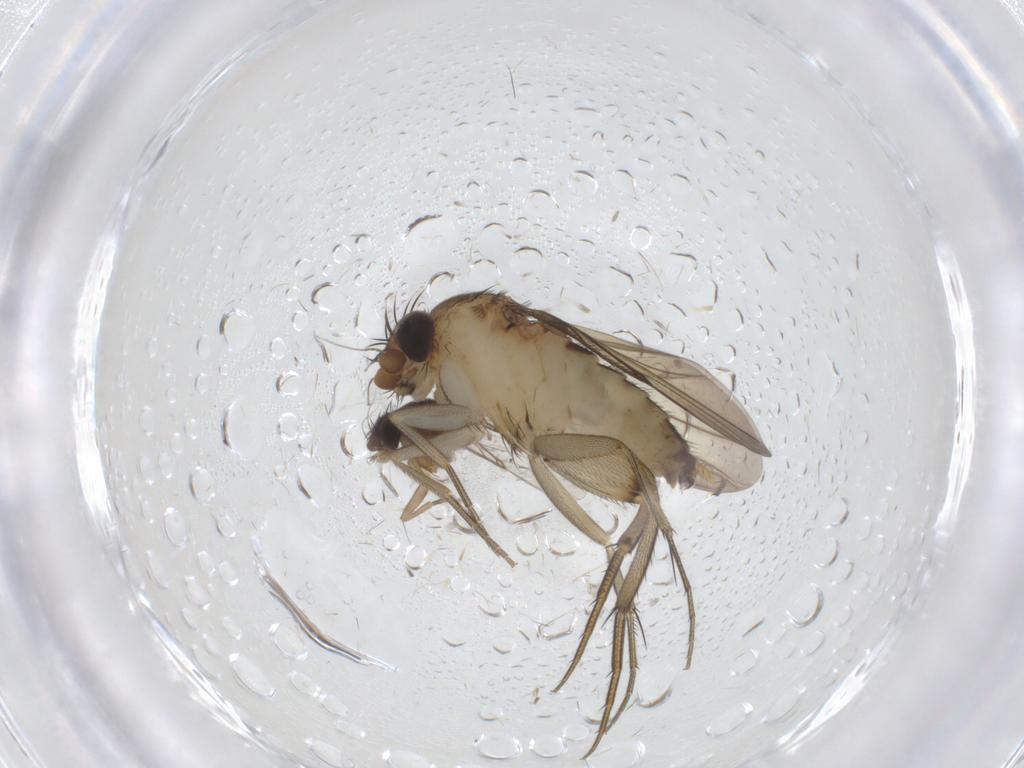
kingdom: Animalia
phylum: Arthropoda
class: Insecta
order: Diptera
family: Phoridae
